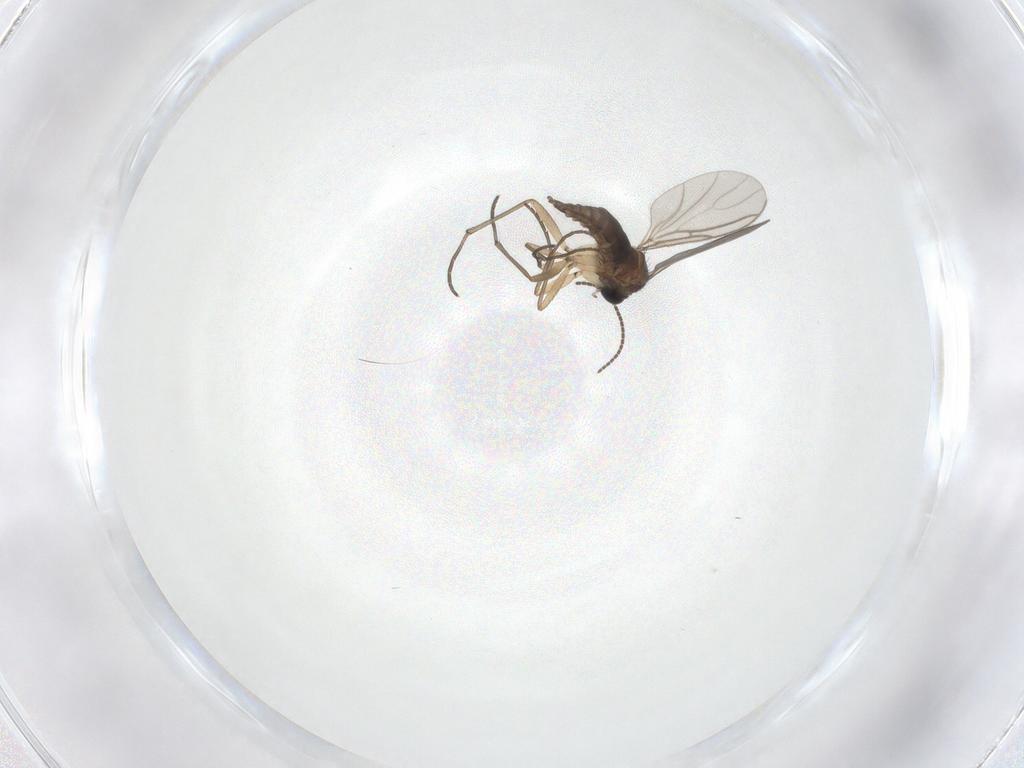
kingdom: Animalia
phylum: Arthropoda
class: Insecta
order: Diptera
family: Sciaridae
